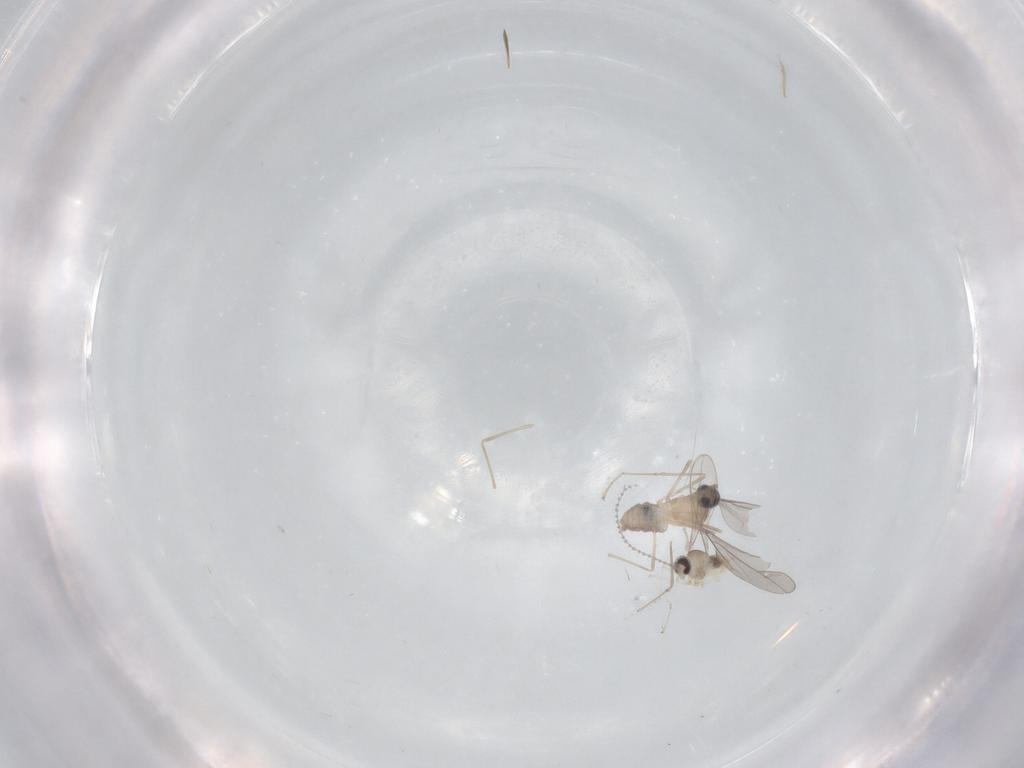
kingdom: Animalia
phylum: Arthropoda
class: Insecta
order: Diptera
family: Cecidomyiidae
